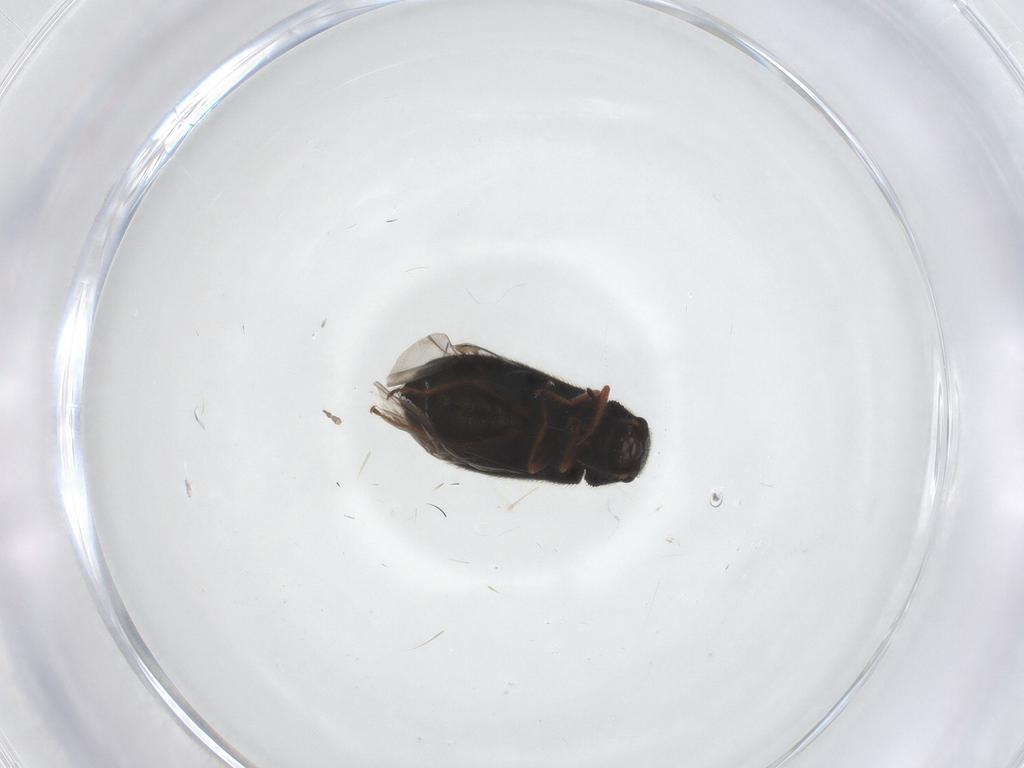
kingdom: Animalia
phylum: Arthropoda
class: Insecta
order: Coleoptera
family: Melyridae
